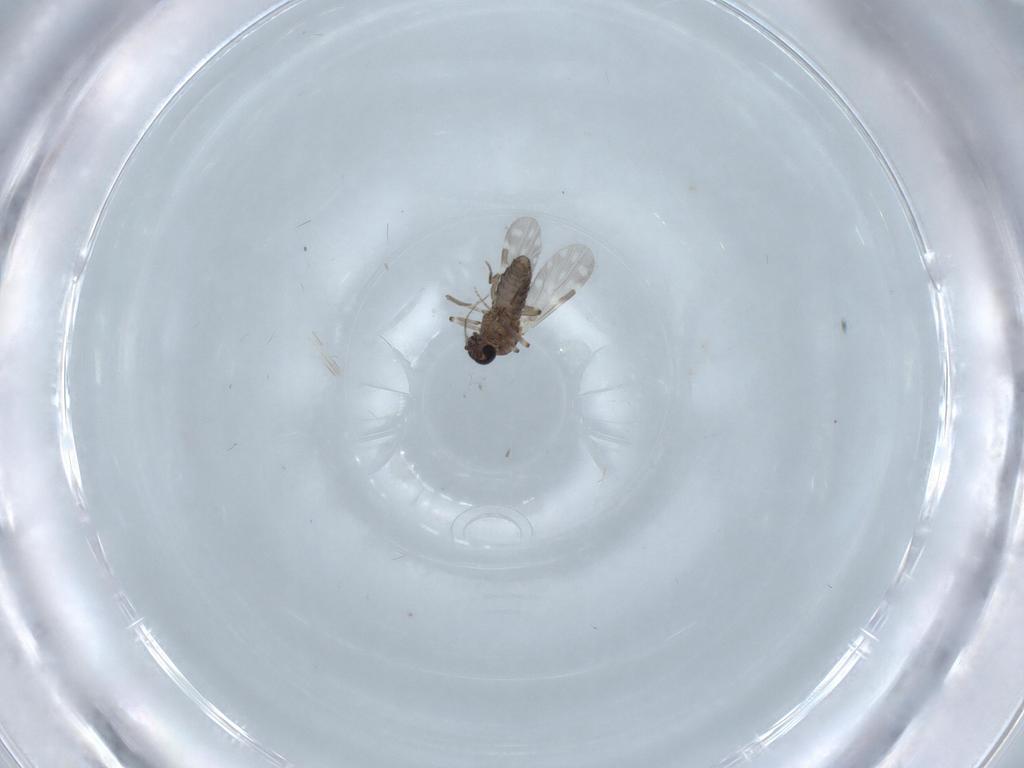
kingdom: Animalia
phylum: Arthropoda
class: Insecta
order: Diptera
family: Ceratopogonidae
